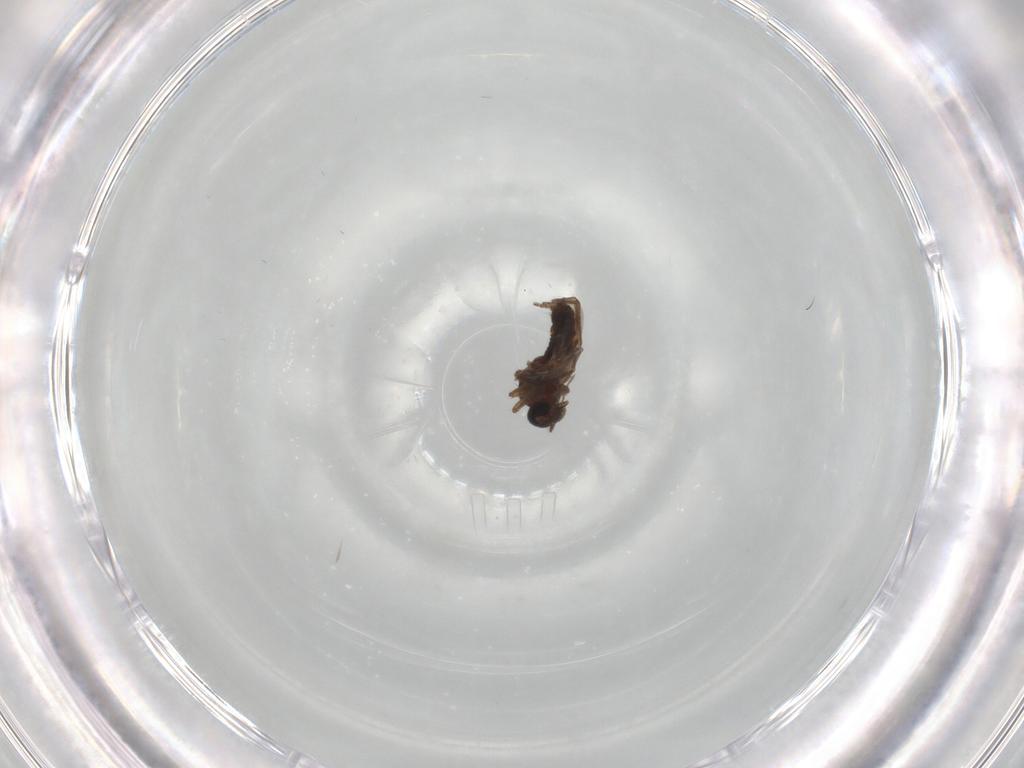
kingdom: Animalia
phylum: Arthropoda
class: Insecta
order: Diptera
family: Ceratopogonidae
